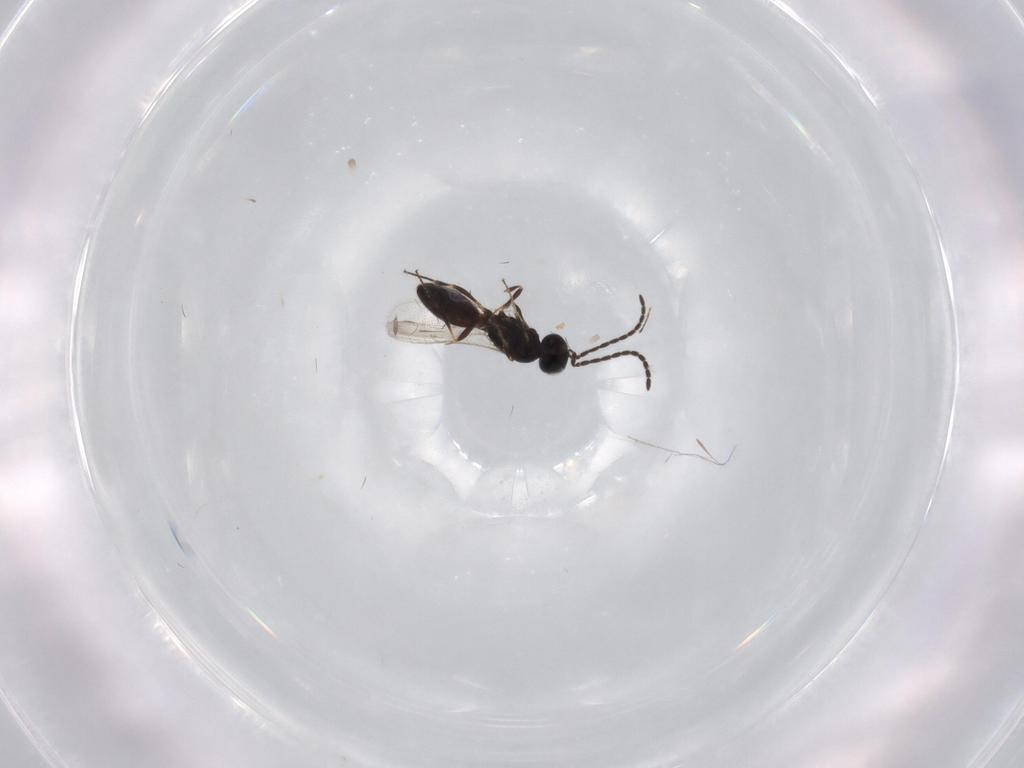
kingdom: Animalia
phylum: Arthropoda
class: Insecta
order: Hymenoptera
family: Scelionidae
